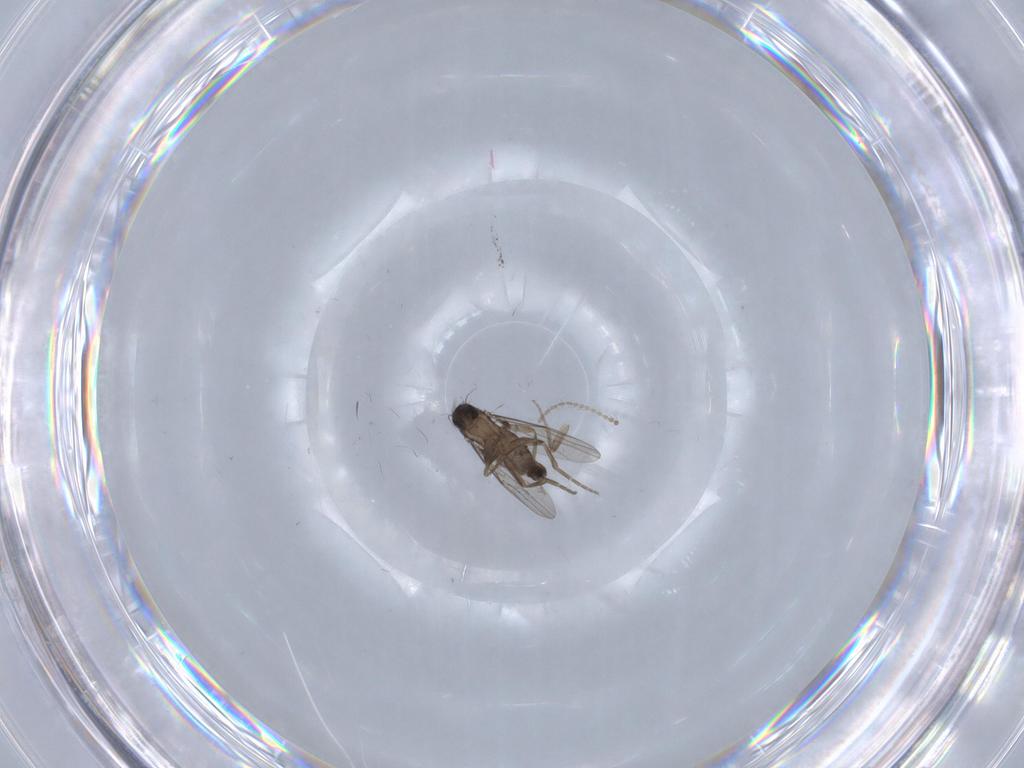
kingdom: Animalia
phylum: Arthropoda
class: Insecta
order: Diptera
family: Phoridae
